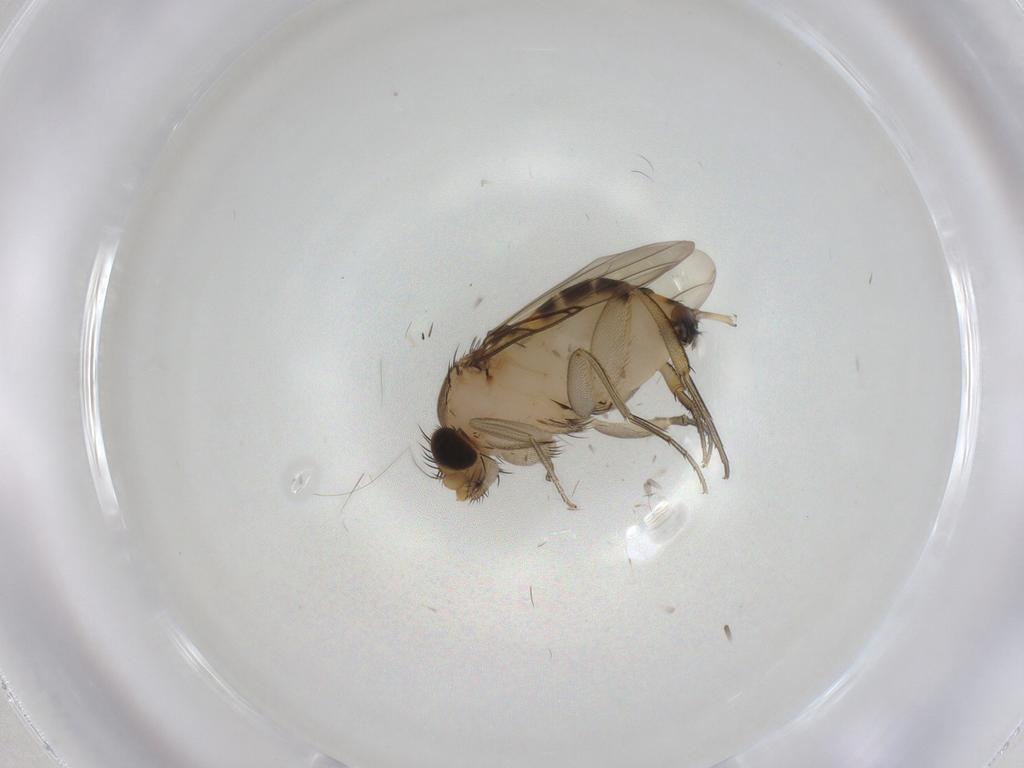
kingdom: Animalia
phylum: Arthropoda
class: Insecta
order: Diptera
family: Phoridae
